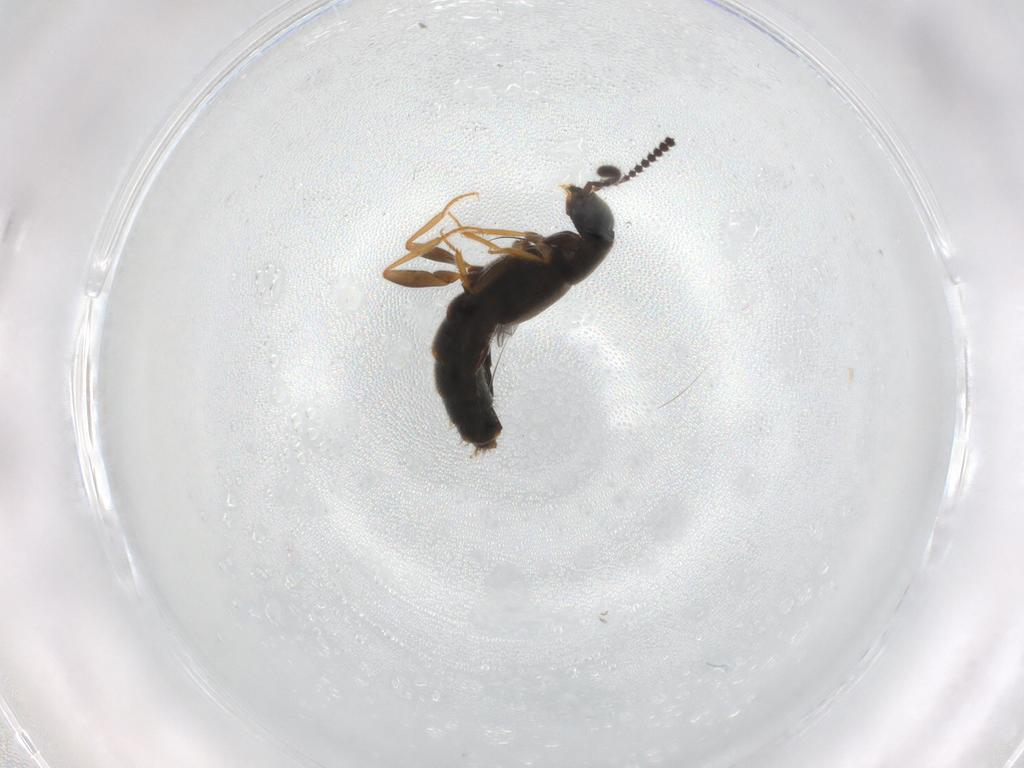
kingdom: Animalia
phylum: Arthropoda
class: Insecta
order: Coleoptera
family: Staphylinidae
